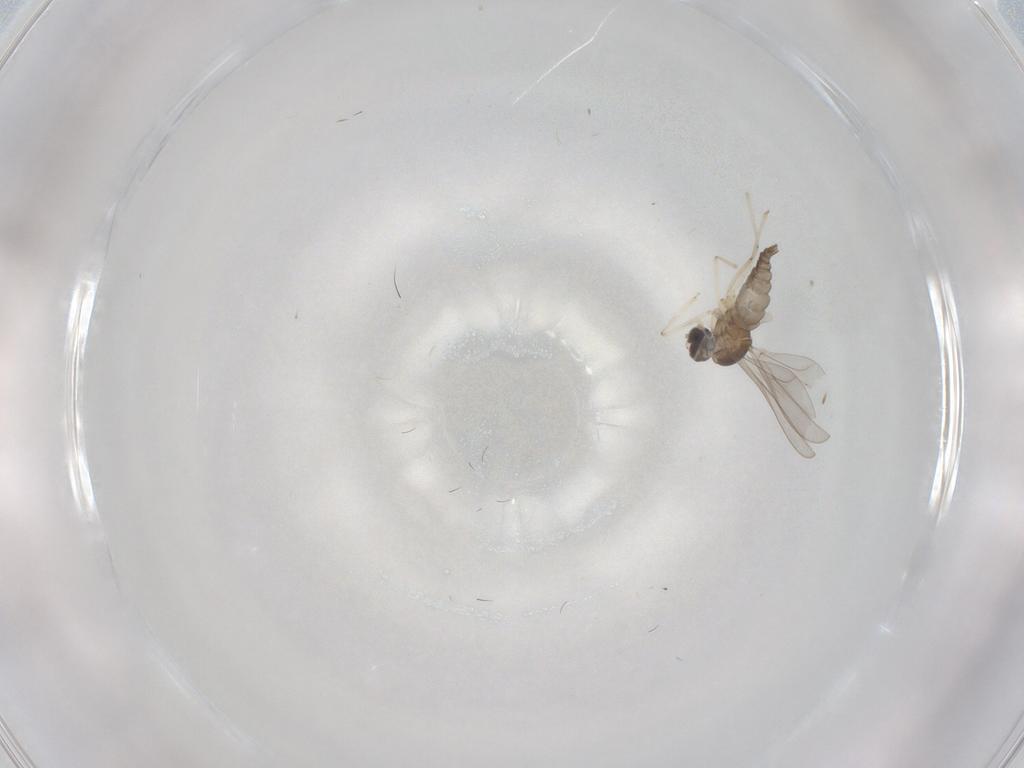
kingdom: Animalia
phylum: Arthropoda
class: Insecta
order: Diptera
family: Cecidomyiidae
